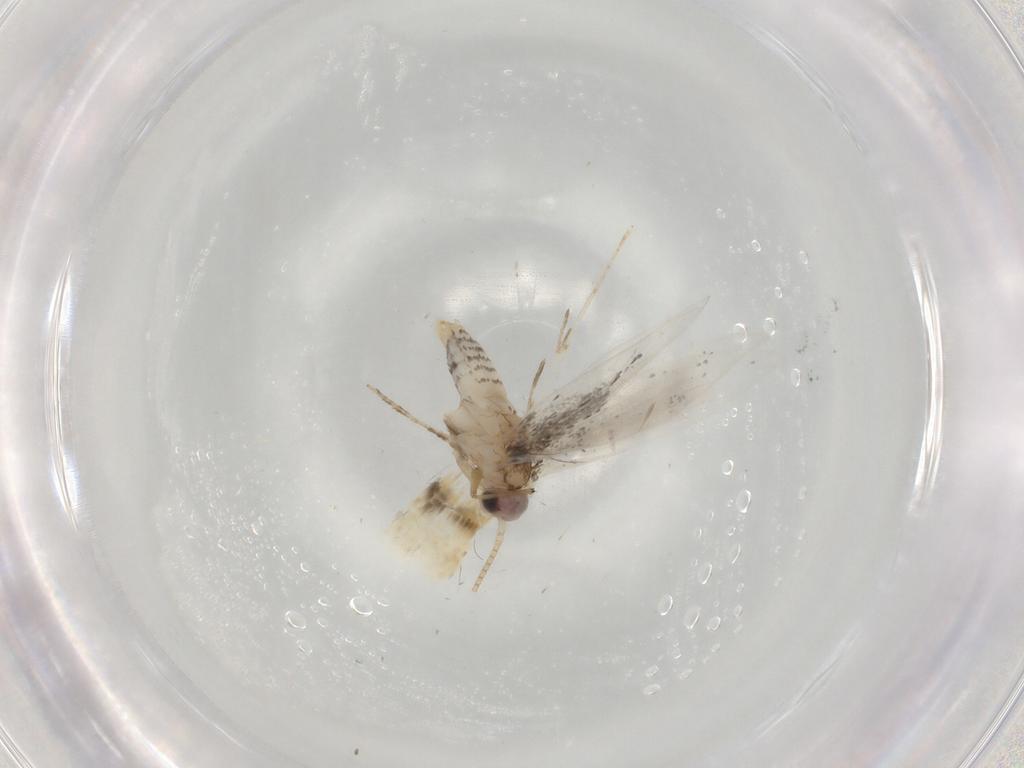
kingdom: Animalia
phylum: Arthropoda
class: Insecta
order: Lepidoptera
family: Tineidae
